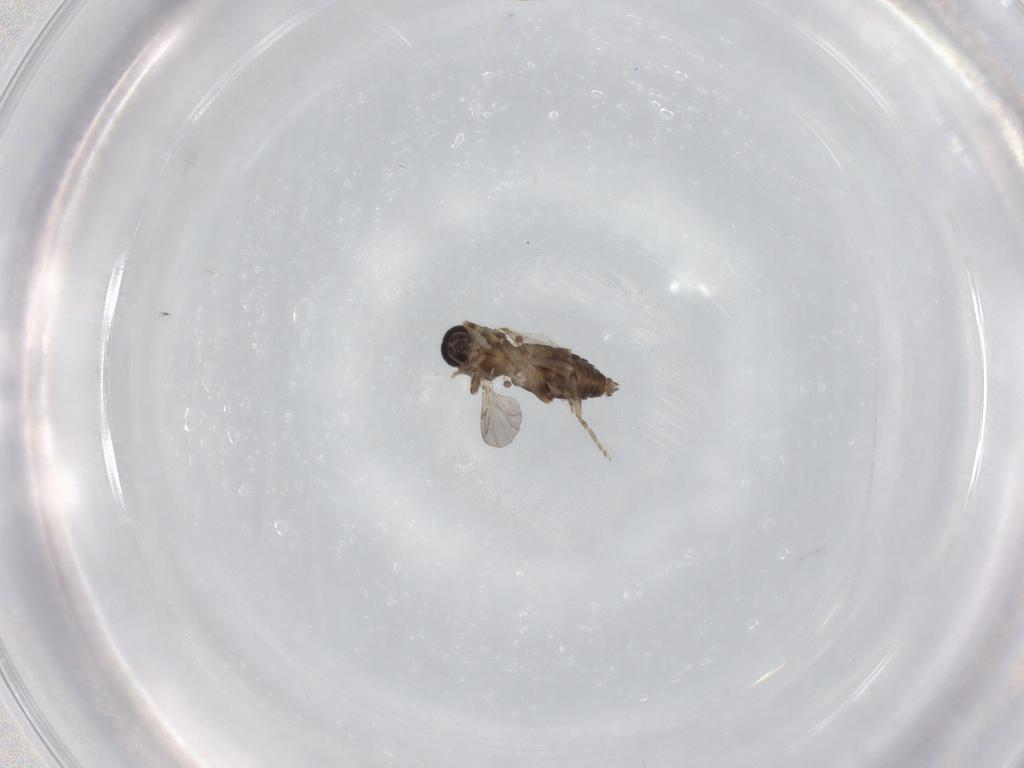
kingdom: Animalia
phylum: Arthropoda
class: Insecta
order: Diptera
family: Ceratopogonidae
